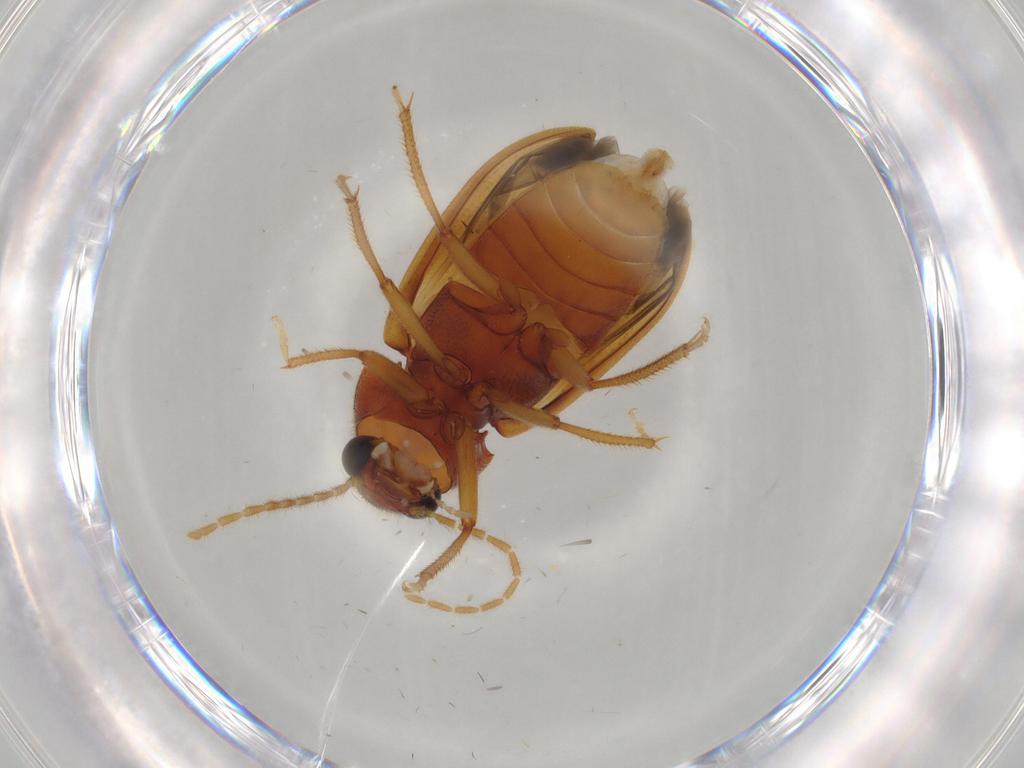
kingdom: Animalia
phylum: Arthropoda
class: Insecta
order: Coleoptera
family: Ptilodactylidae
